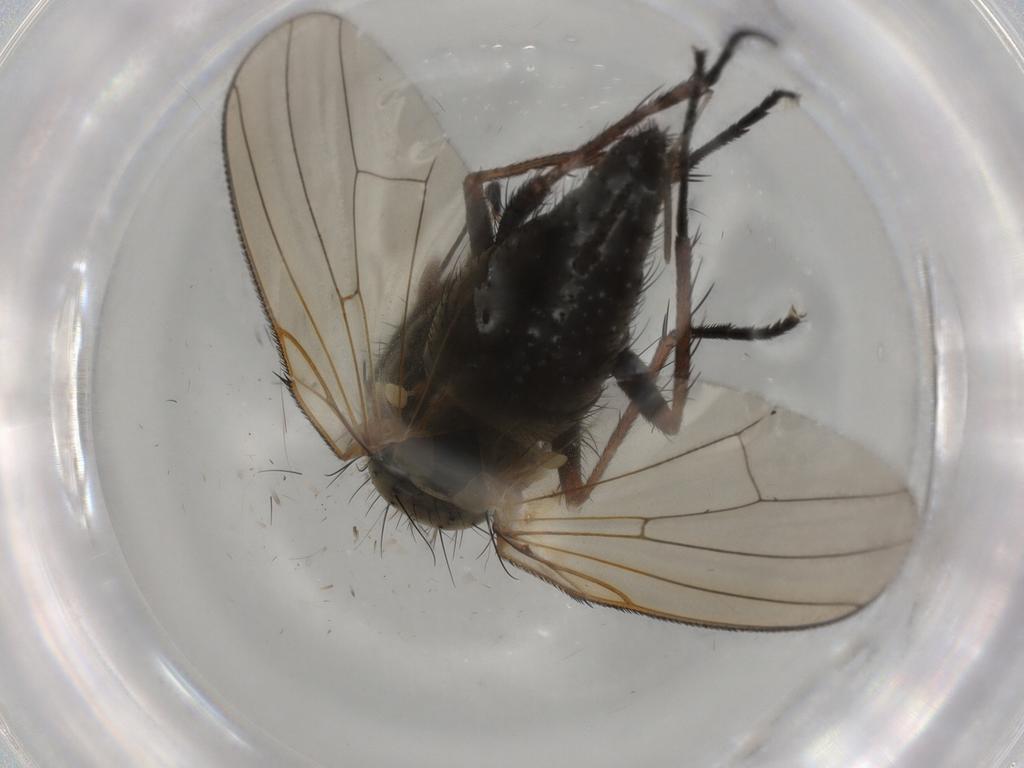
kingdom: Animalia
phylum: Arthropoda
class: Insecta
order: Diptera
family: Anthomyiidae
